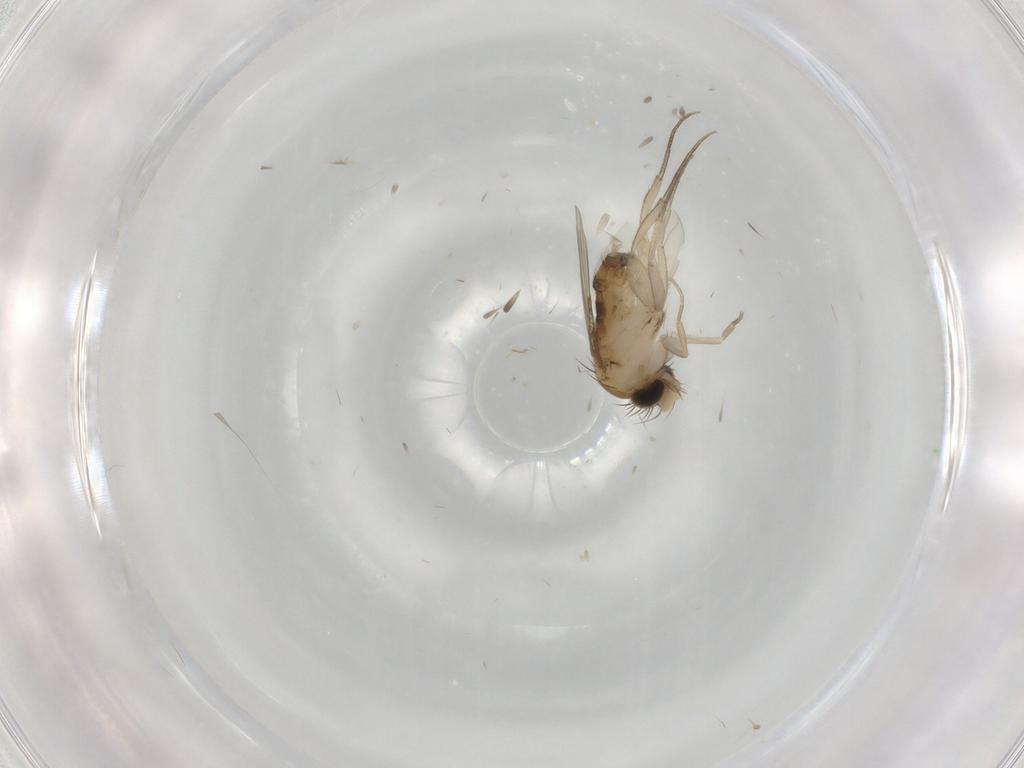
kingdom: Animalia
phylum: Arthropoda
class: Insecta
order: Diptera
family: Phoridae
